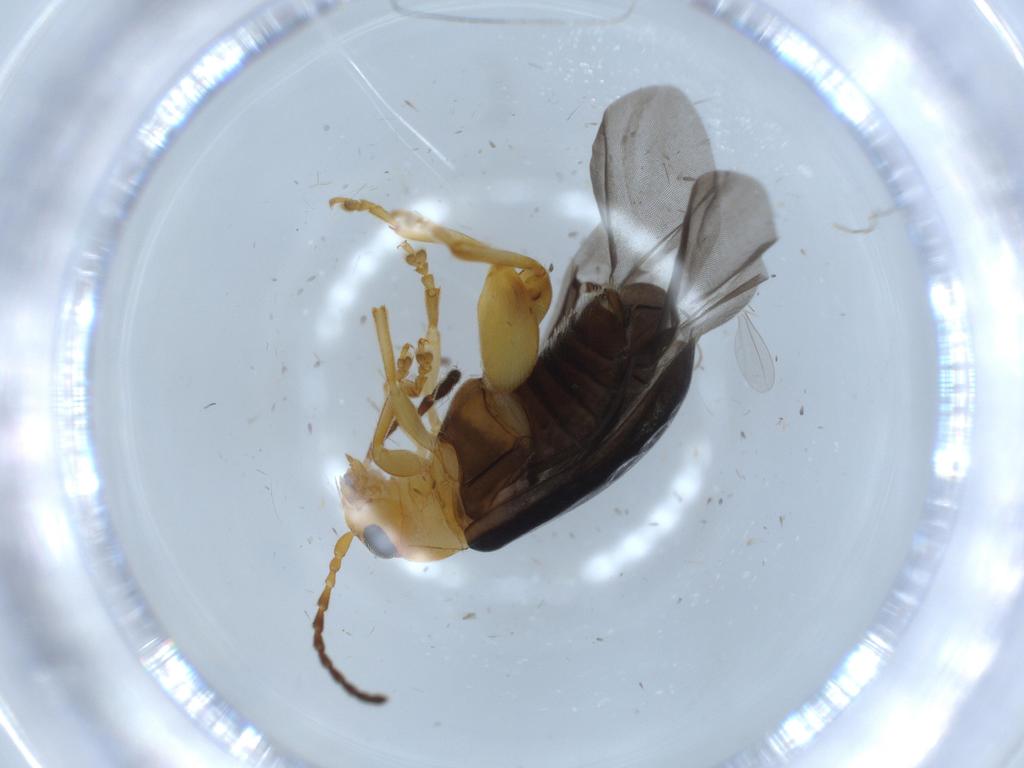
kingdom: Animalia
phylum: Arthropoda
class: Insecta
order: Coleoptera
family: Chrysomelidae
